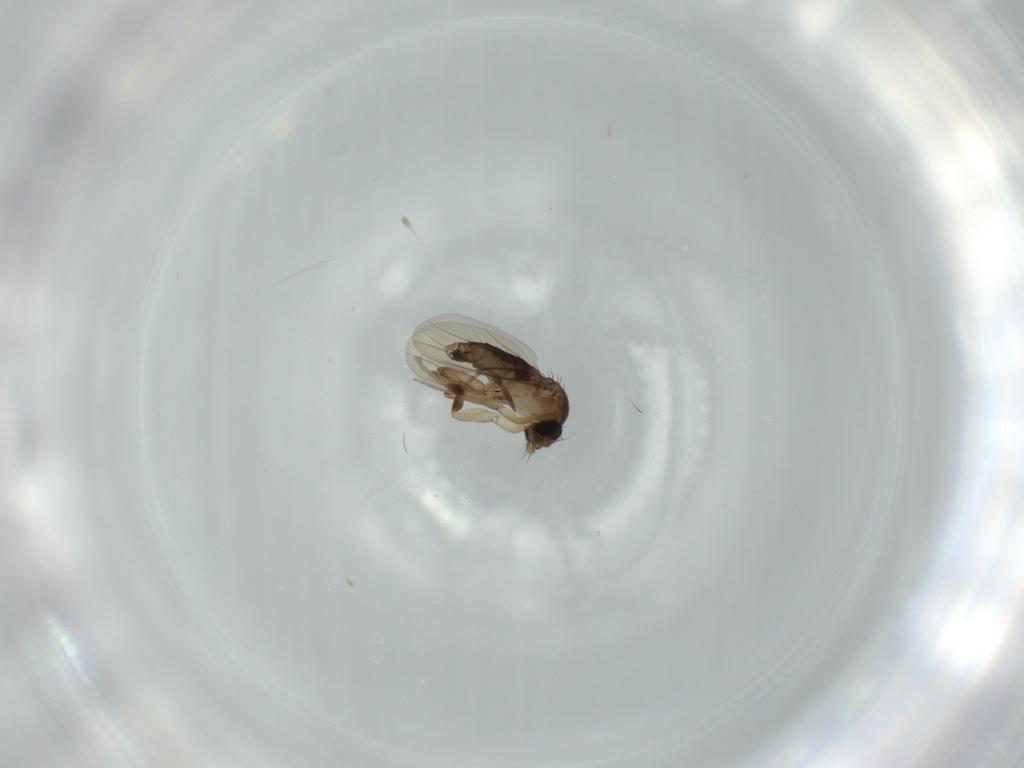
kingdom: Animalia
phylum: Arthropoda
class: Insecta
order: Diptera
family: Phoridae
